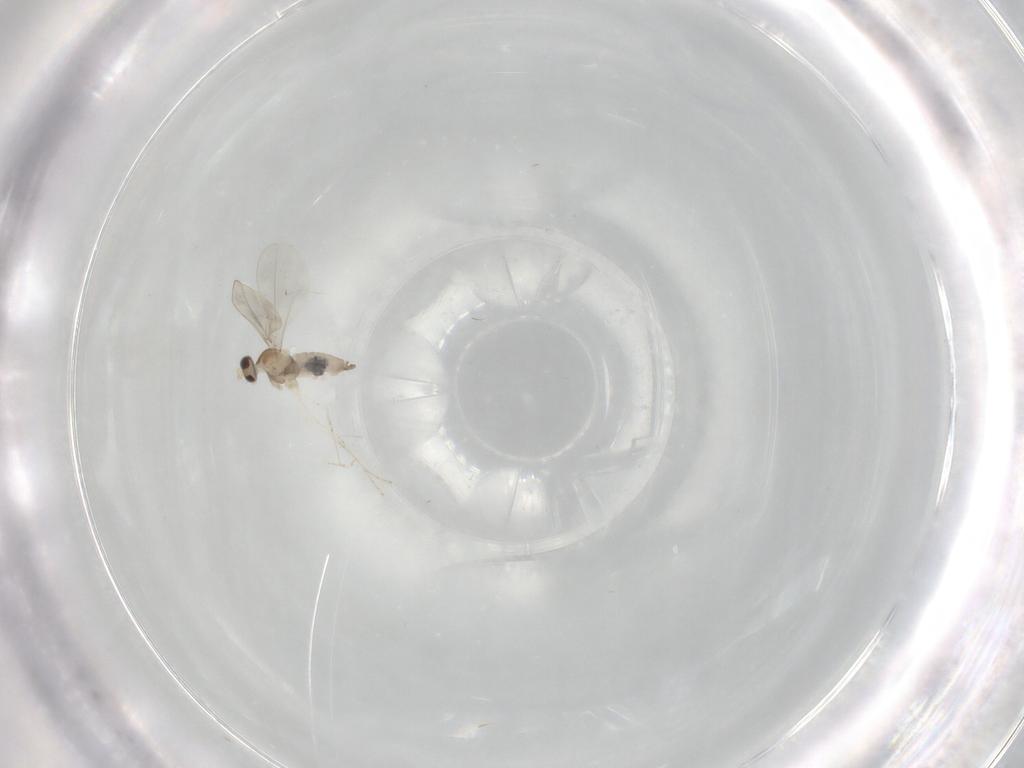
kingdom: Animalia
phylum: Arthropoda
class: Insecta
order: Diptera
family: Cecidomyiidae
